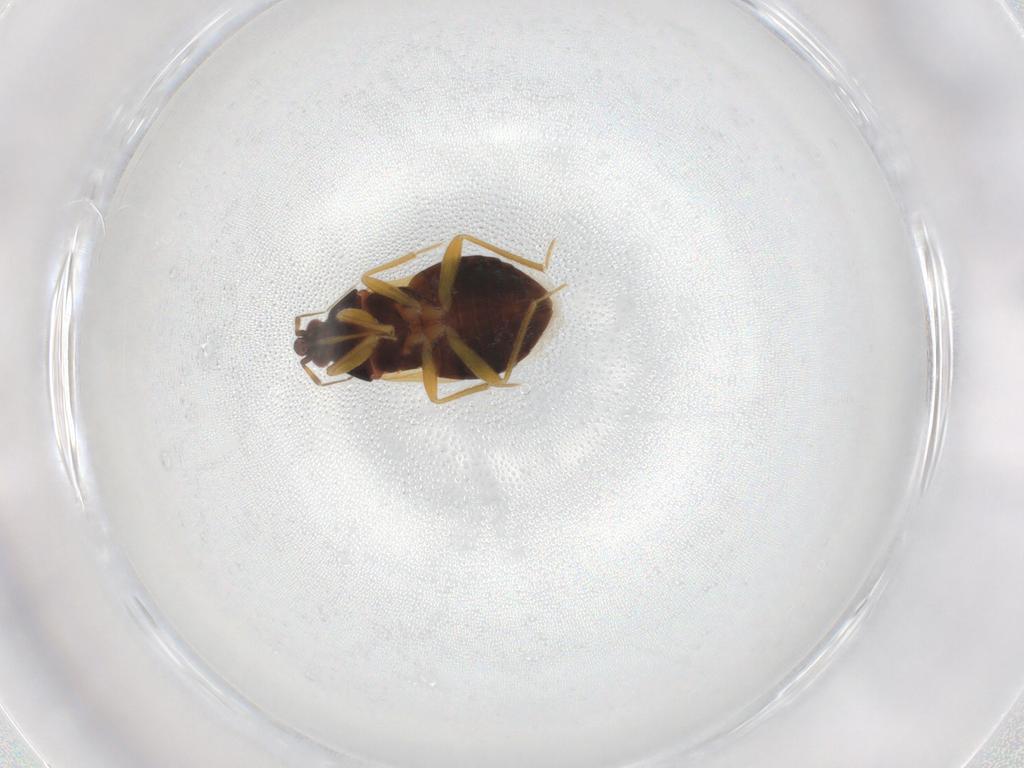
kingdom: Animalia
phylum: Arthropoda
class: Insecta
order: Hemiptera
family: Anthocoridae
